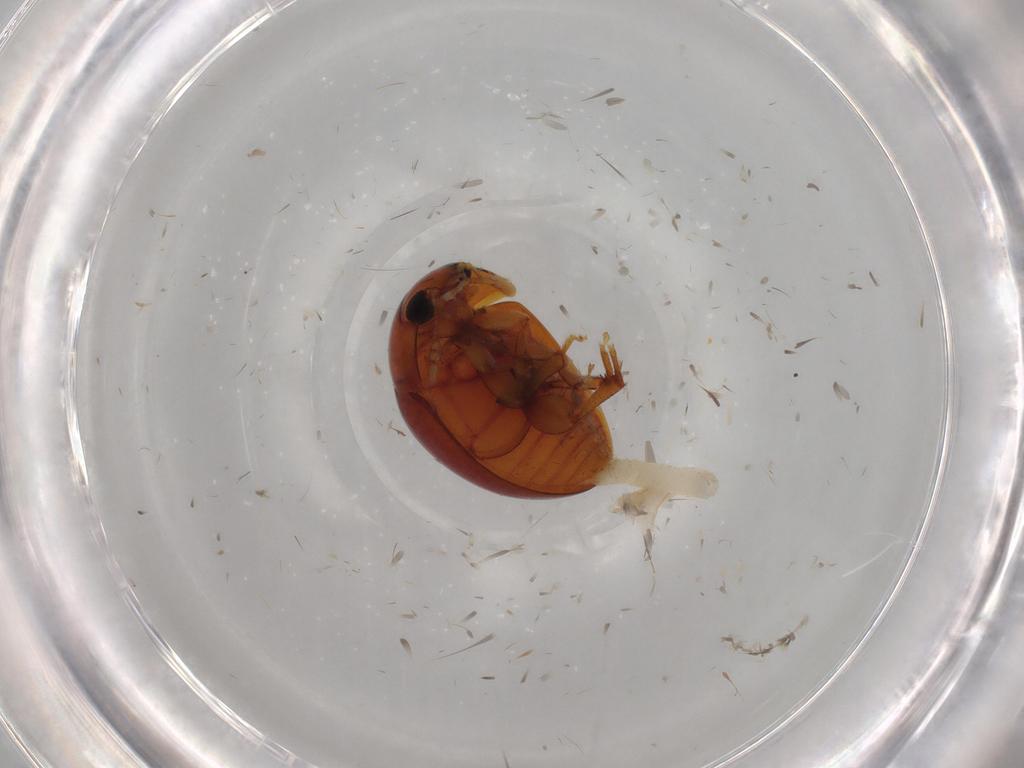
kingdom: Animalia
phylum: Arthropoda
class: Insecta
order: Coleoptera
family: Phalacridae
